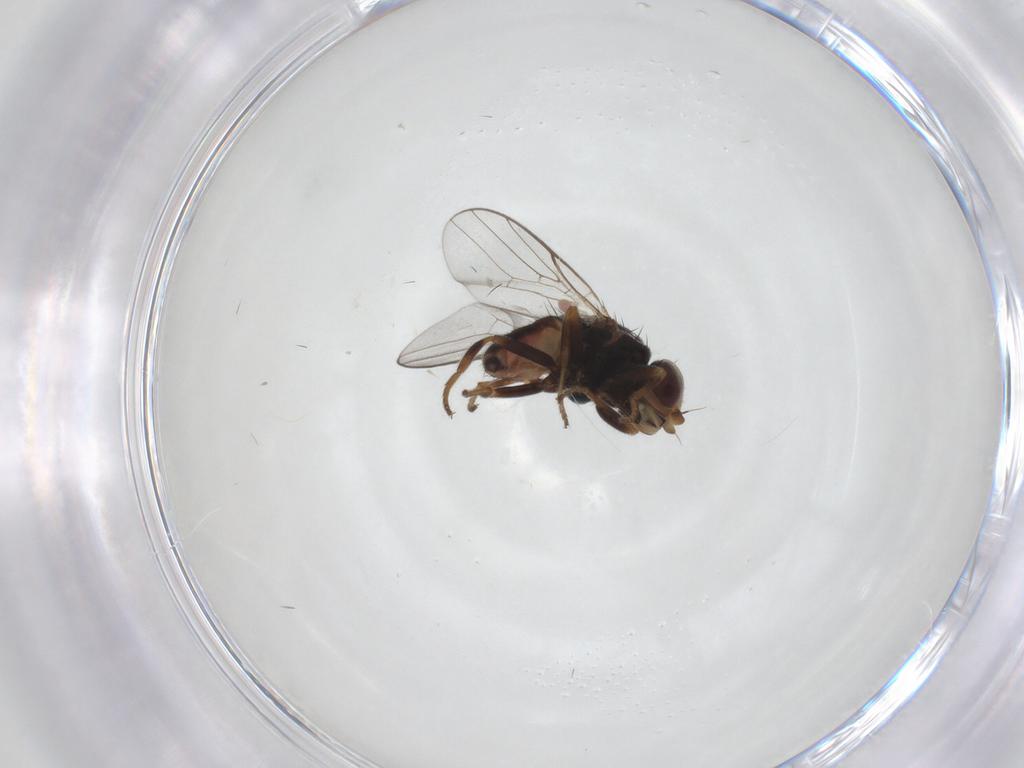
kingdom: Animalia
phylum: Arthropoda
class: Insecta
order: Diptera
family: Chloropidae
